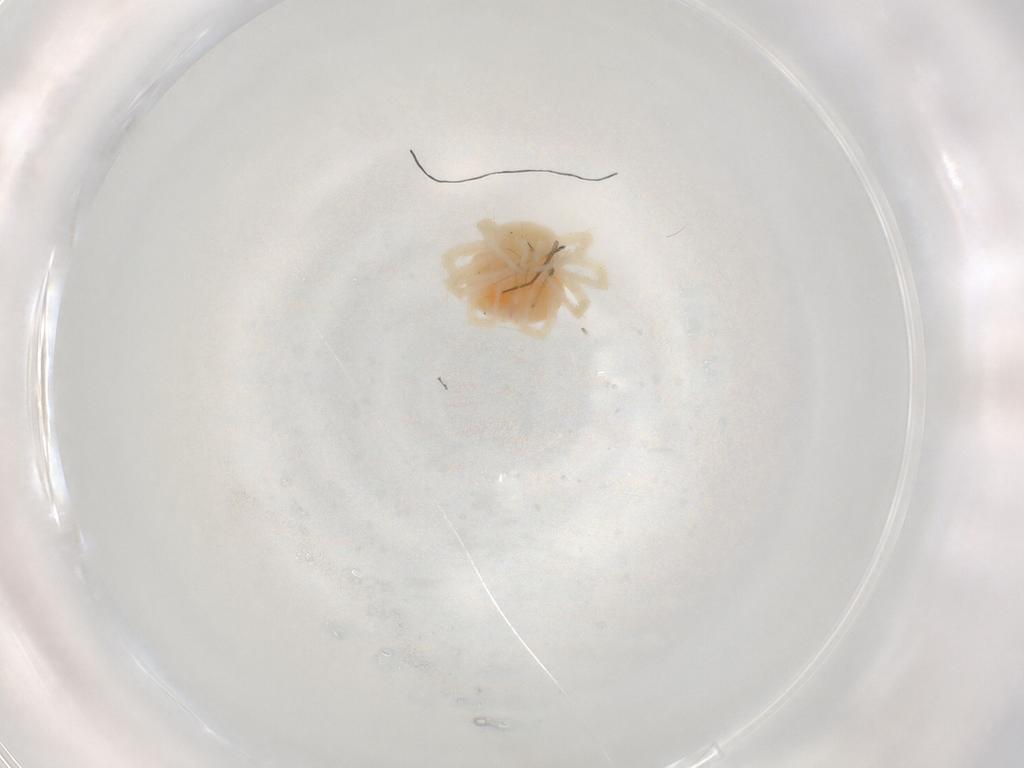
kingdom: Animalia
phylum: Arthropoda
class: Arachnida
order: Trombidiformes
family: Anystidae
